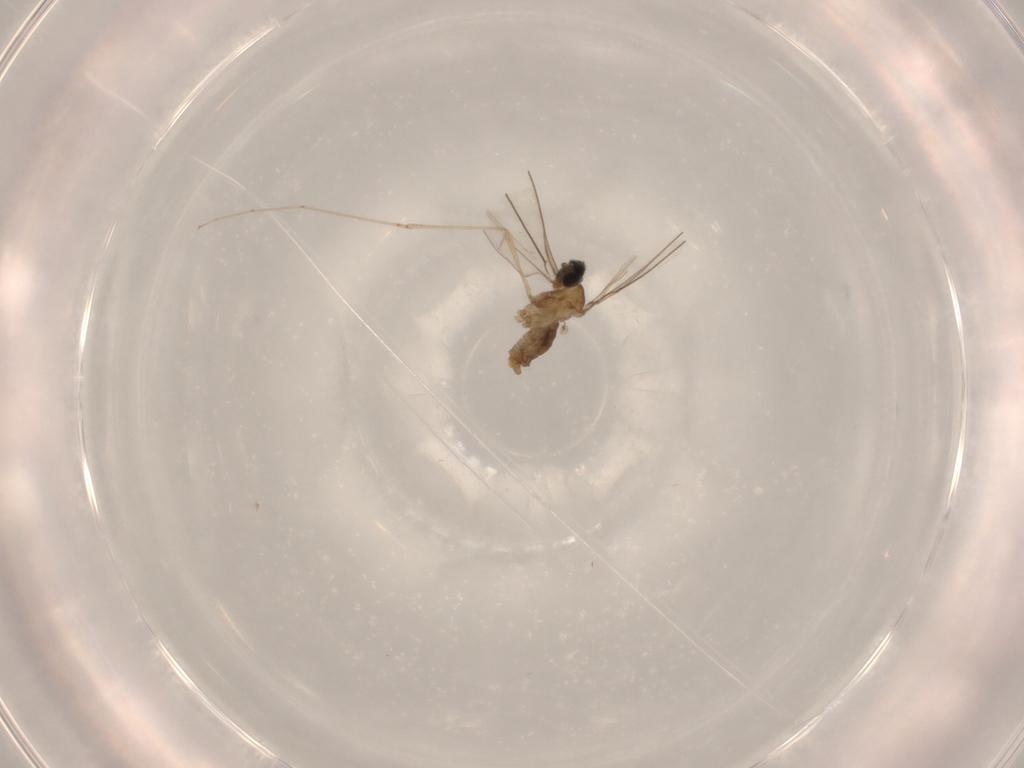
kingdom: Animalia
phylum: Arthropoda
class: Insecta
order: Diptera
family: Cecidomyiidae
